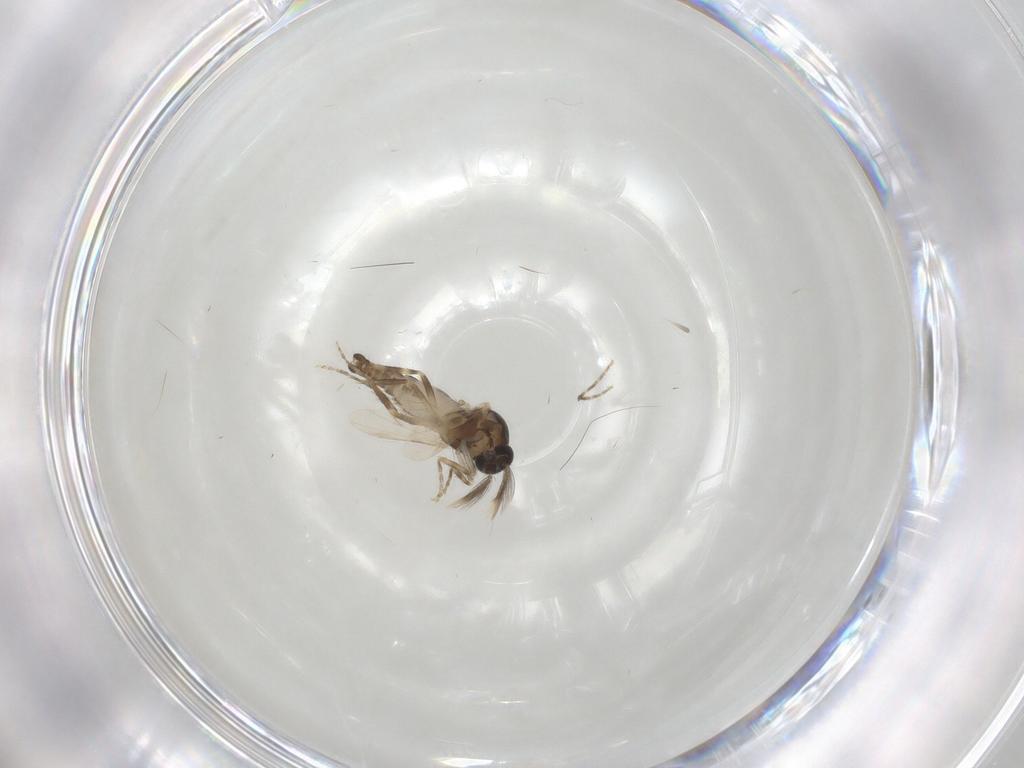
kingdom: Animalia
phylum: Arthropoda
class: Insecta
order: Diptera
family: Ceratopogonidae
